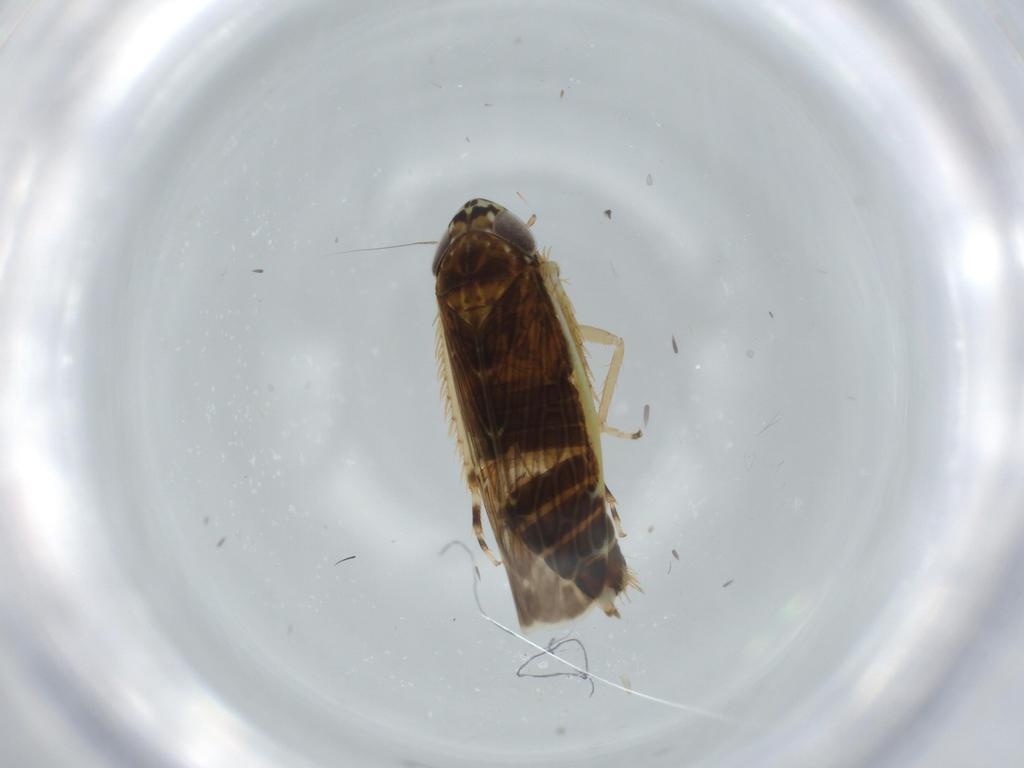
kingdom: Animalia
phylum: Arthropoda
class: Insecta
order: Hemiptera
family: Cicadellidae
